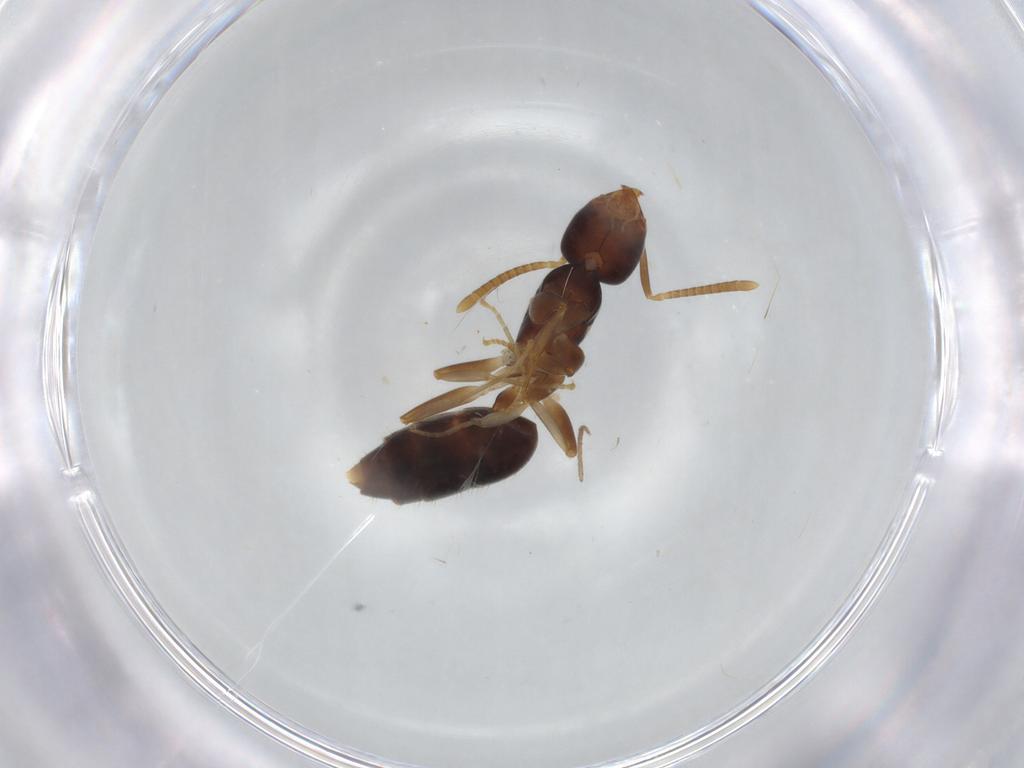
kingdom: Animalia
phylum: Arthropoda
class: Insecta
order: Hymenoptera
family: Formicidae
